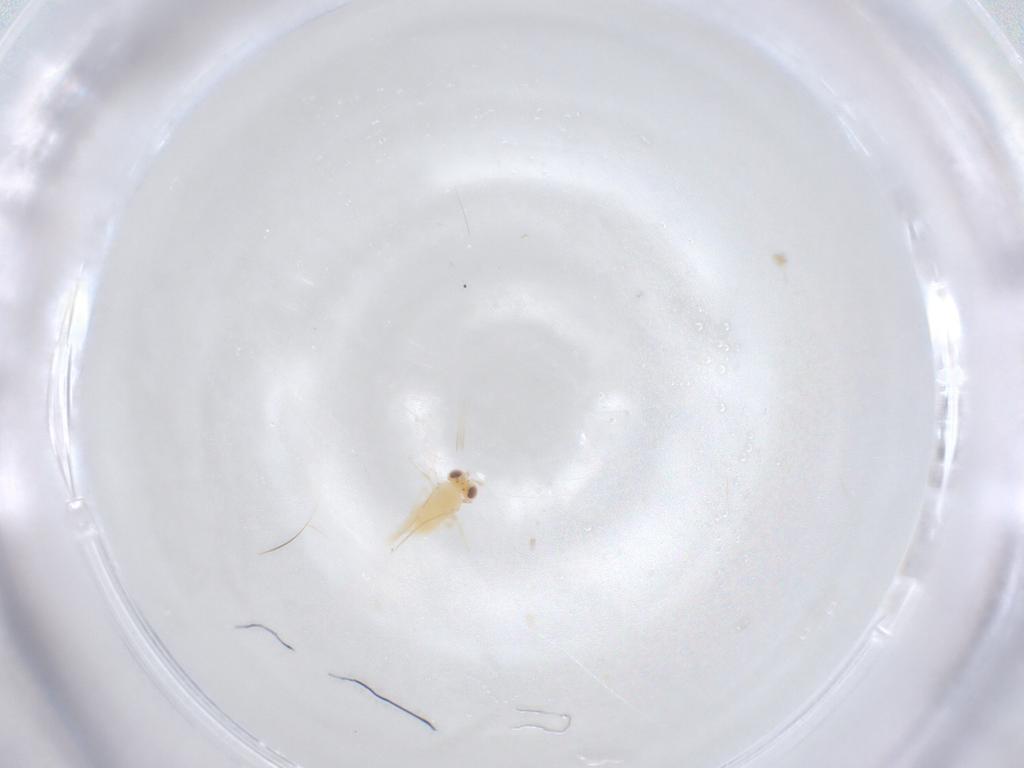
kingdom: Animalia
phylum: Arthropoda
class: Insecta
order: Hymenoptera
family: Aphelinidae
